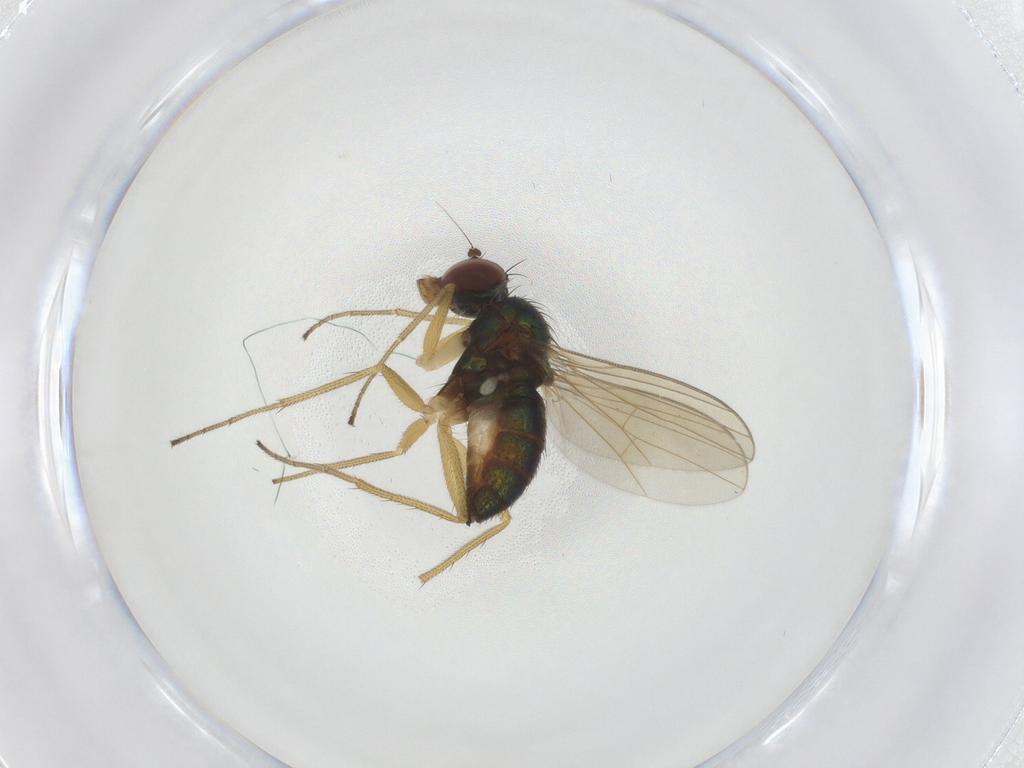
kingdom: Animalia
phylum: Arthropoda
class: Insecta
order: Diptera
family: Dolichopodidae
